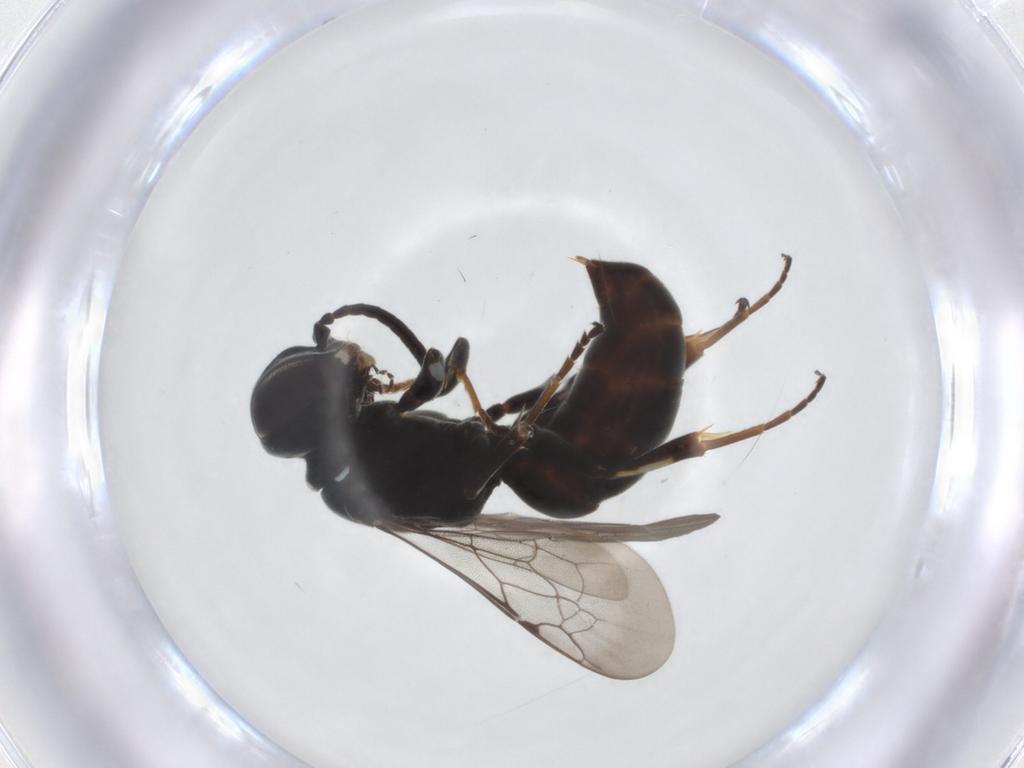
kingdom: Animalia
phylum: Arthropoda
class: Insecta
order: Hymenoptera
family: Crabronidae
